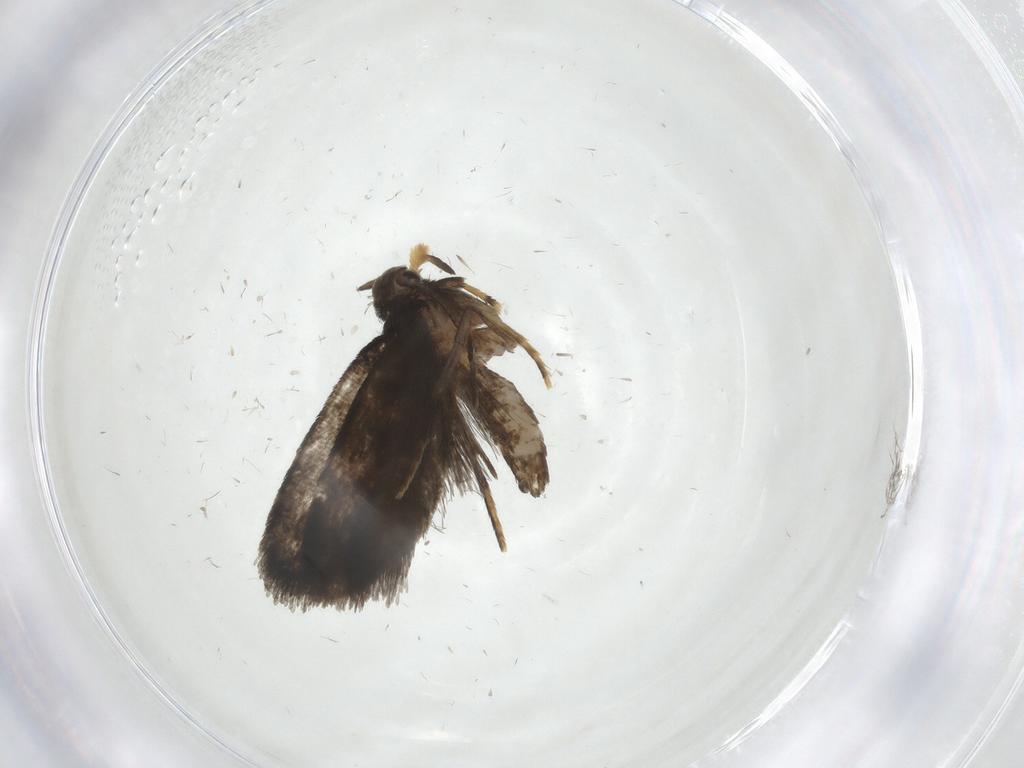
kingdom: Animalia
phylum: Arthropoda
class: Insecta
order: Lepidoptera
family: Psychidae
